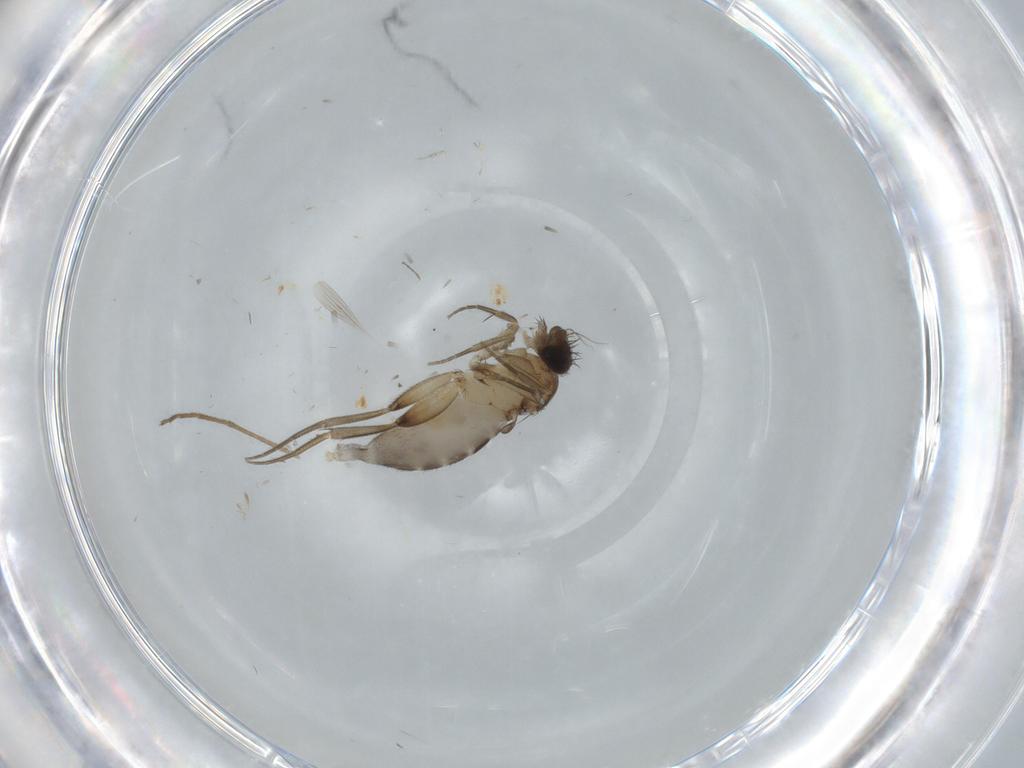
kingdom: Animalia
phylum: Arthropoda
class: Insecta
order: Diptera
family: Phoridae
